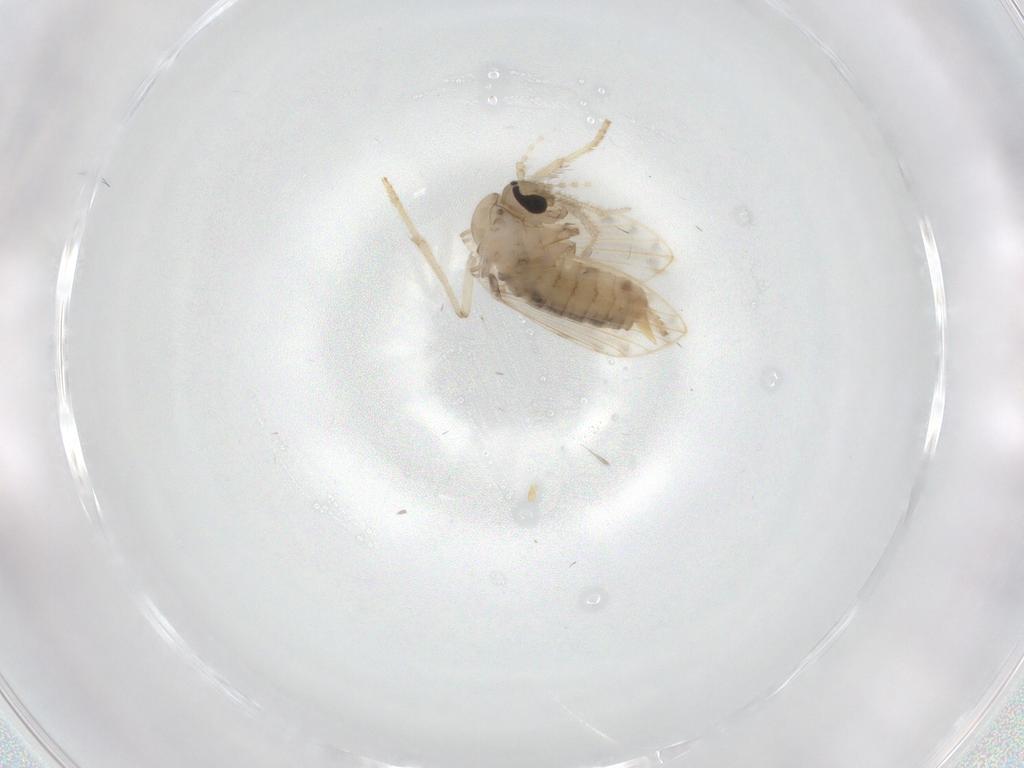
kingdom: Animalia
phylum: Arthropoda
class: Insecta
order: Diptera
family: Psychodidae
